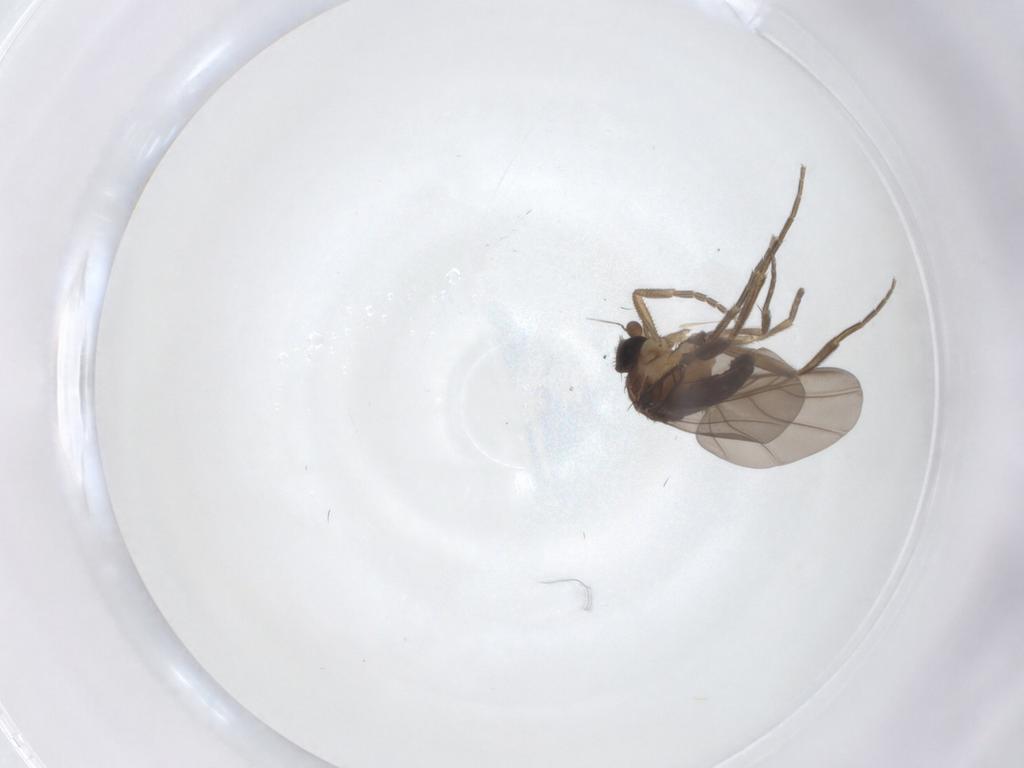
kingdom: Animalia
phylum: Arthropoda
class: Insecta
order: Diptera
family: Phoridae
